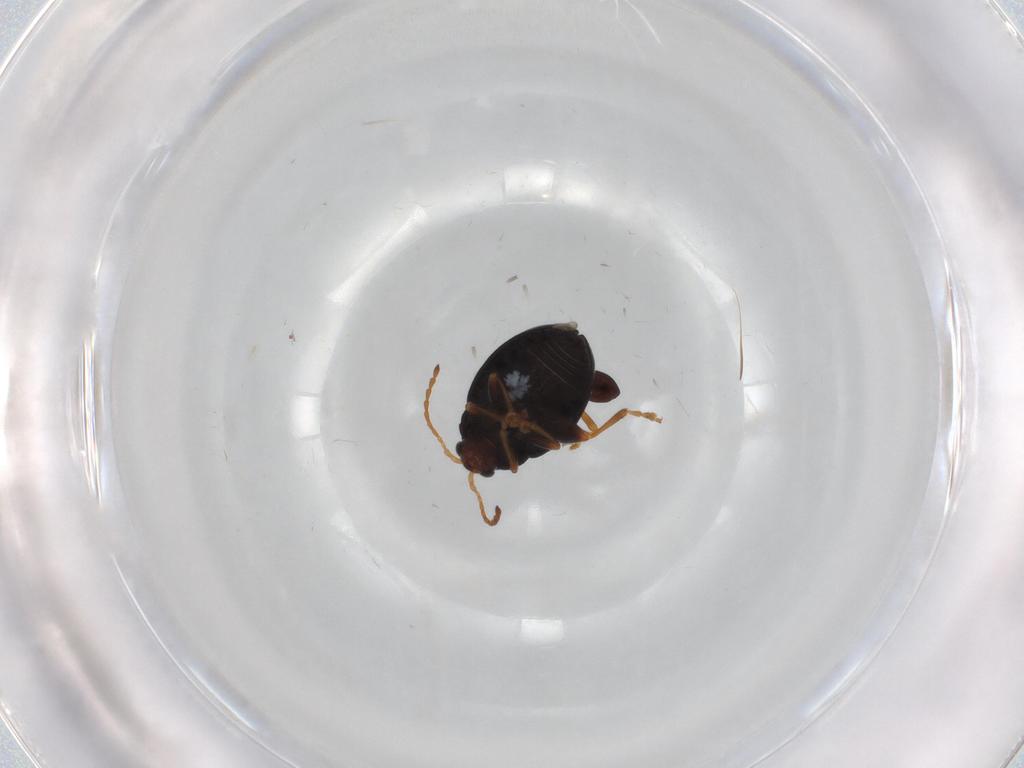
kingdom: Animalia
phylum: Arthropoda
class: Insecta
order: Coleoptera
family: Chrysomelidae
